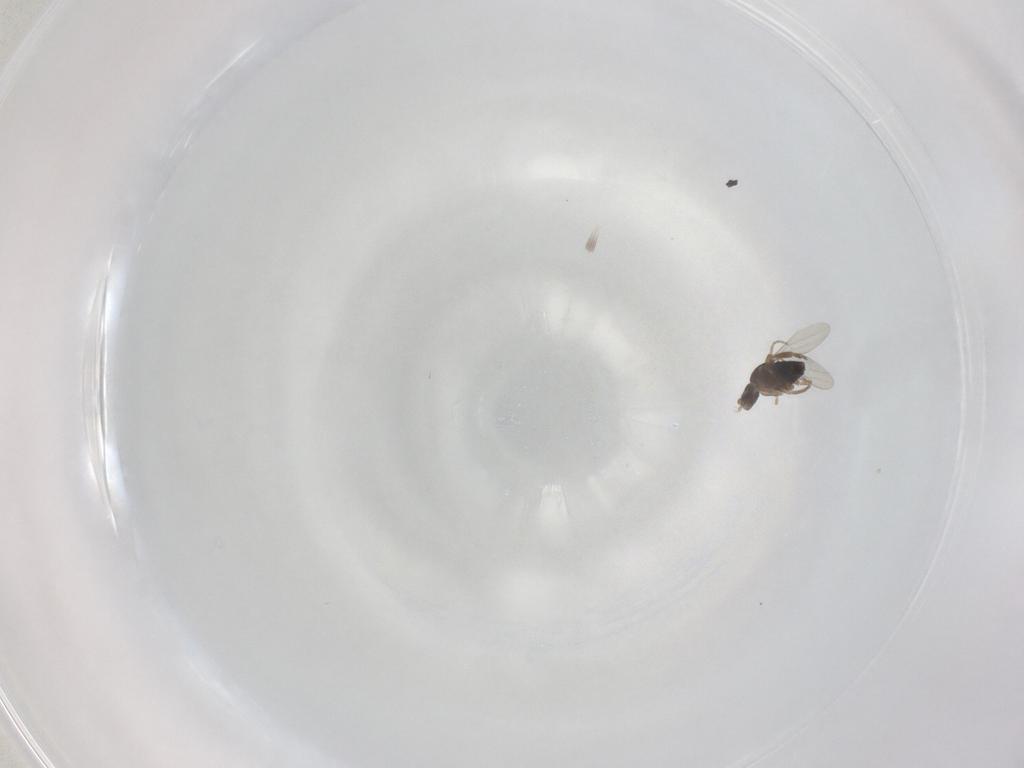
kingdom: Animalia
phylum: Arthropoda
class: Insecta
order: Diptera
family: Phoridae
